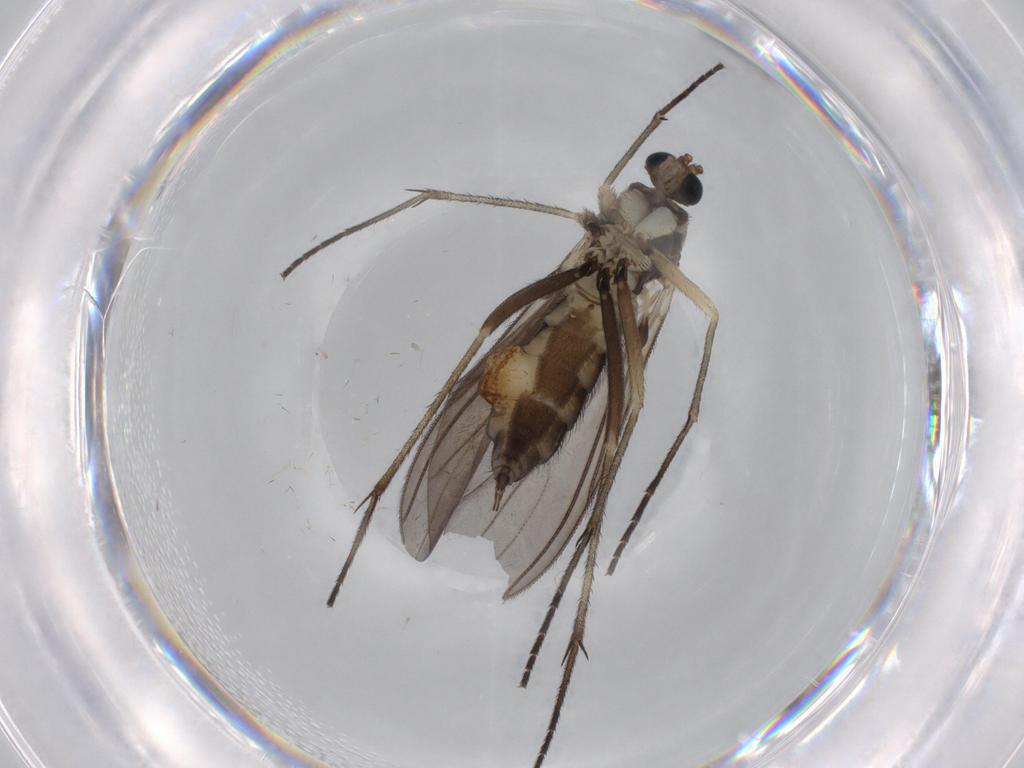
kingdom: Animalia
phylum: Arthropoda
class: Insecta
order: Diptera
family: Sciaridae
